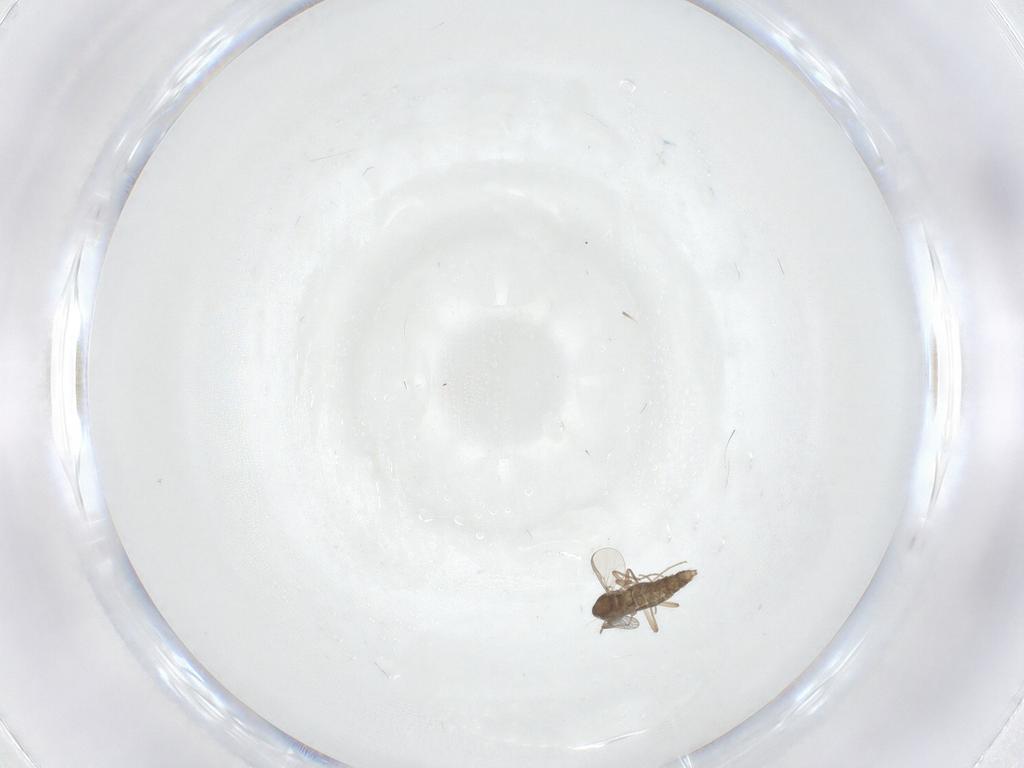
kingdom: Animalia
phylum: Arthropoda
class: Insecta
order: Diptera
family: Chironomidae
